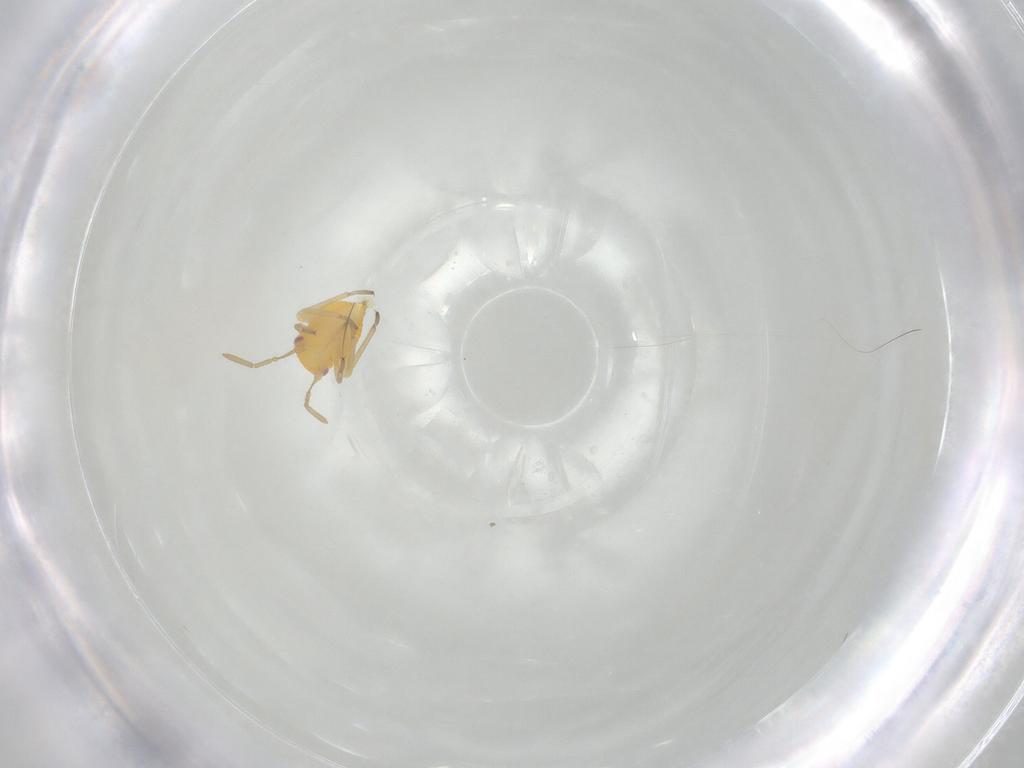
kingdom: Animalia
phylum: Arthropoda
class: Insecta
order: Hemiptera
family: Miridae
